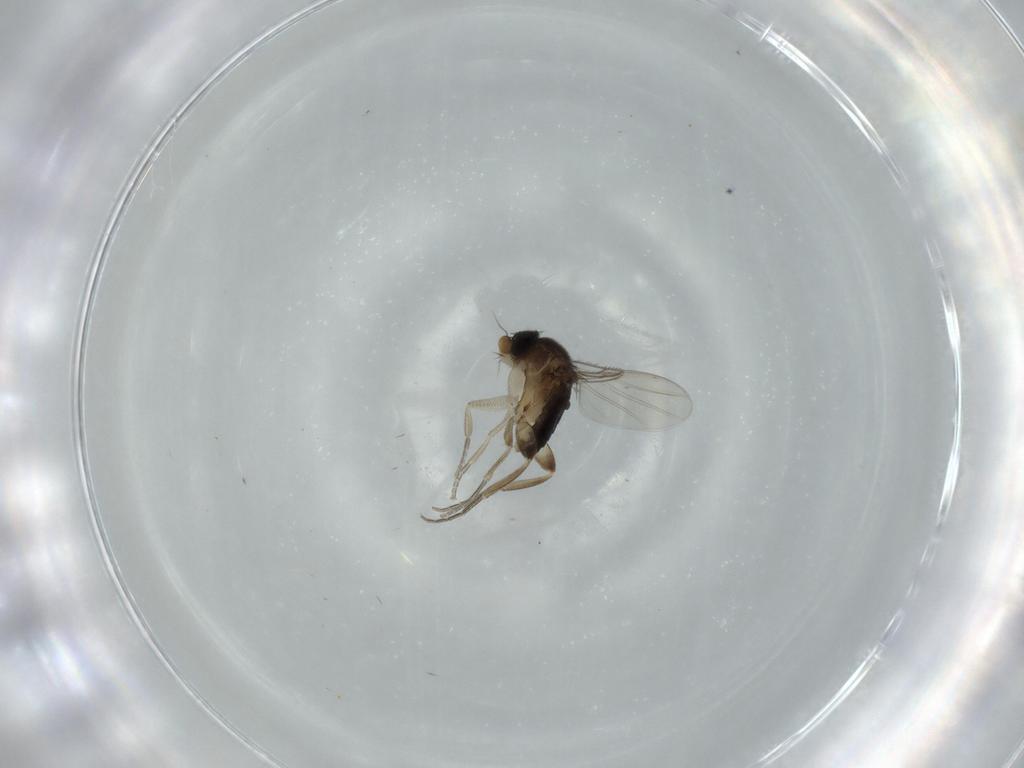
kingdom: Animalia
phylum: Arthropoda
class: Insecta
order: Diptera
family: Phoridae
